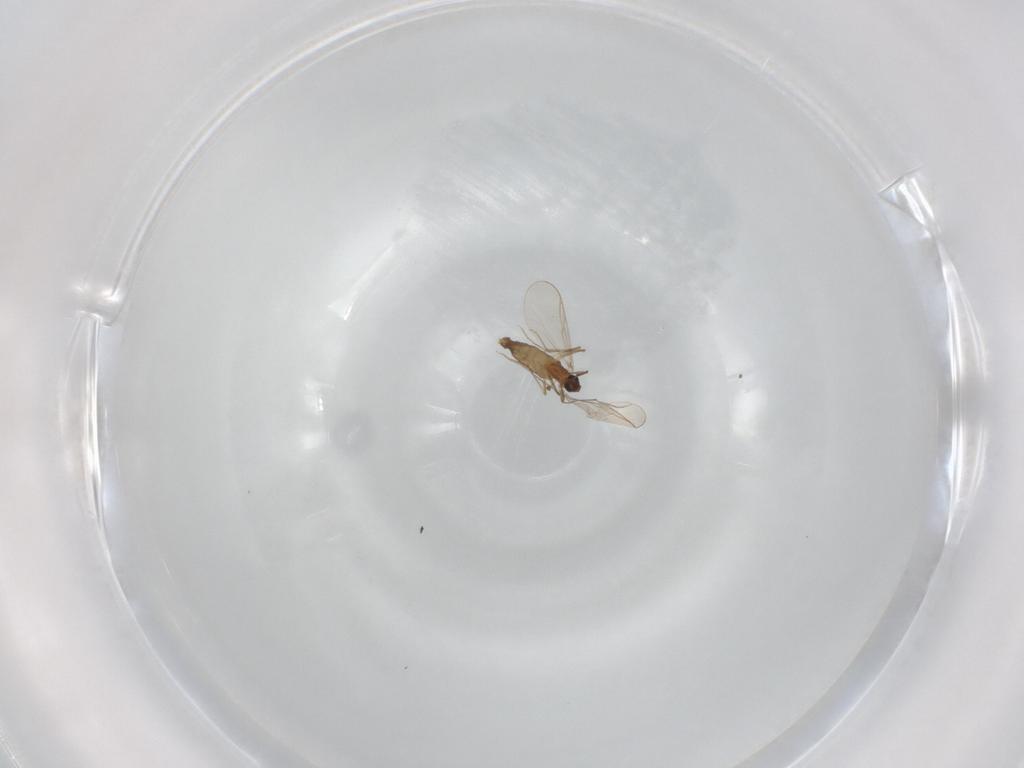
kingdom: Animalia
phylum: Arthropoda
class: Insecta
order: Diptera
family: Chironomidae
